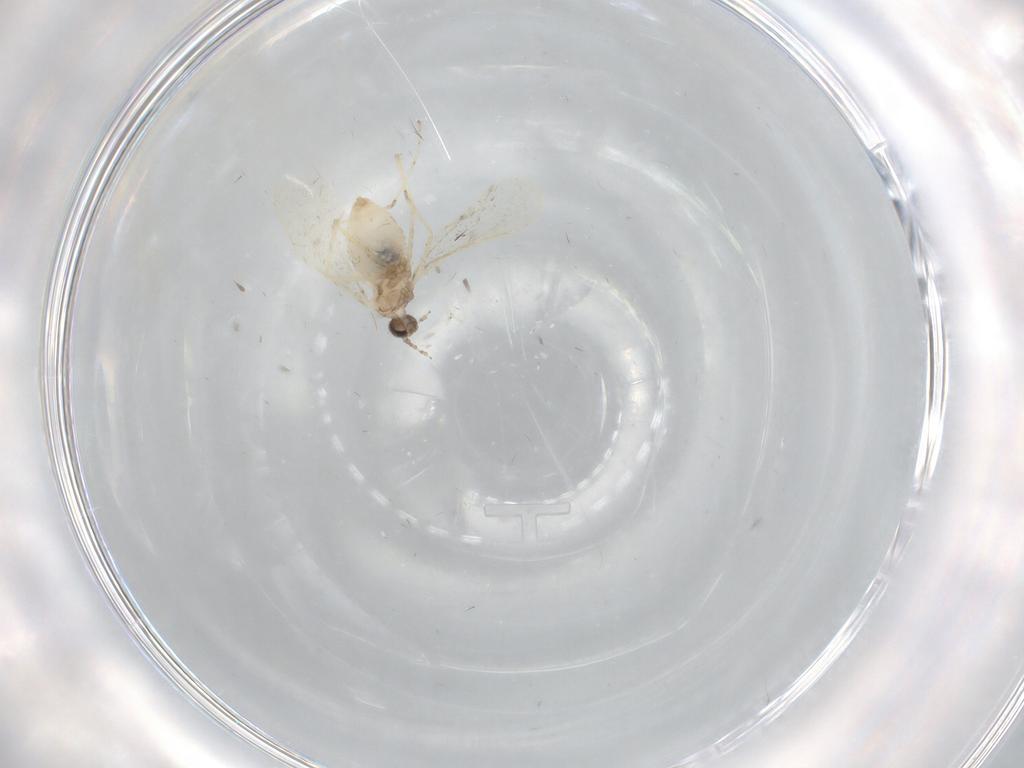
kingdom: Animalia
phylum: Arthropoda
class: Insecta
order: Diptera
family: Cecidomyiidae
